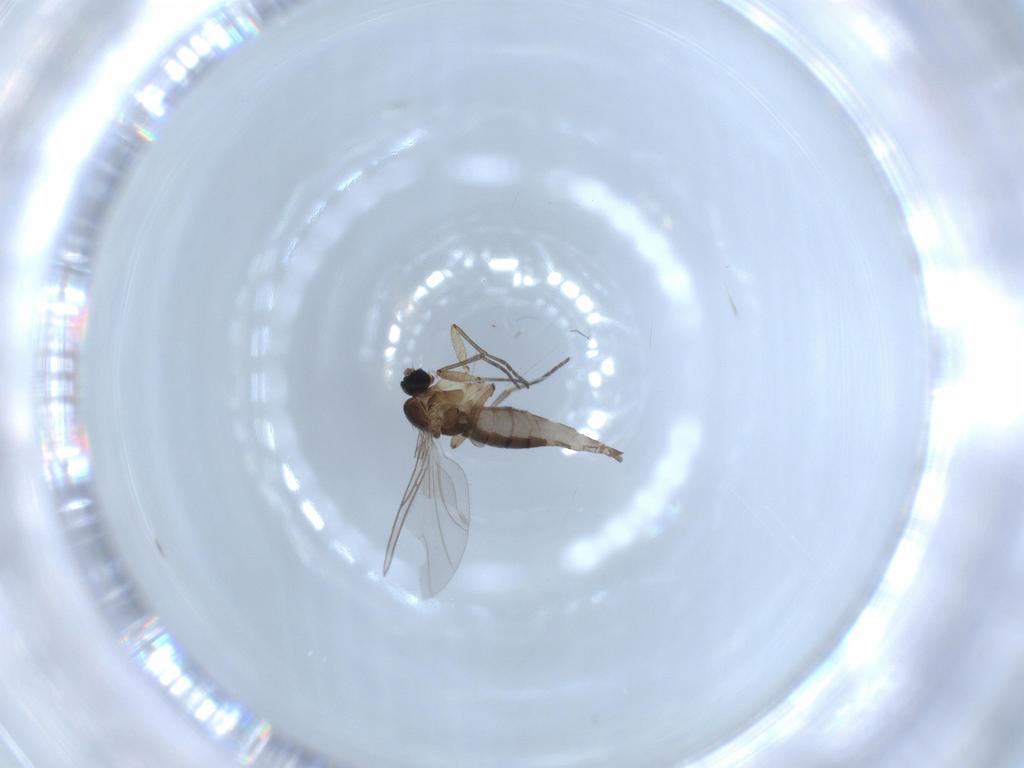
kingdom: Animalia
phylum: Arthropoda
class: Insecta
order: Diptera
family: Sciaridae
